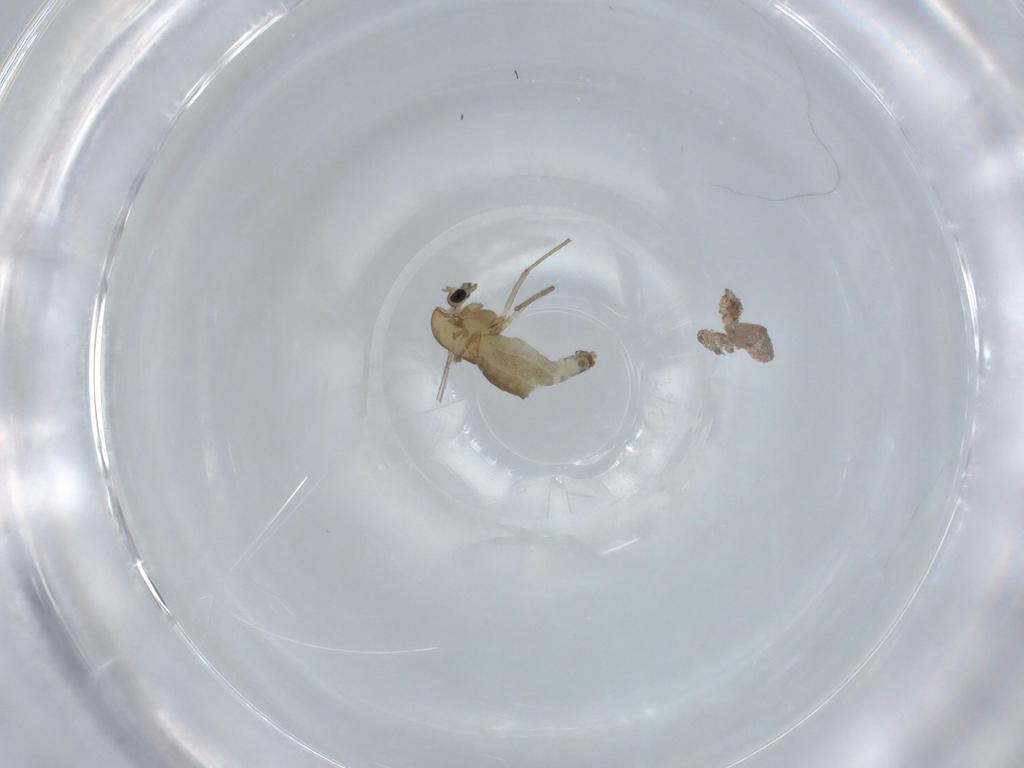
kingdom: Animalia
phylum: Arthropoda
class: Insecta
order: Diptera
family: Chironomidae
